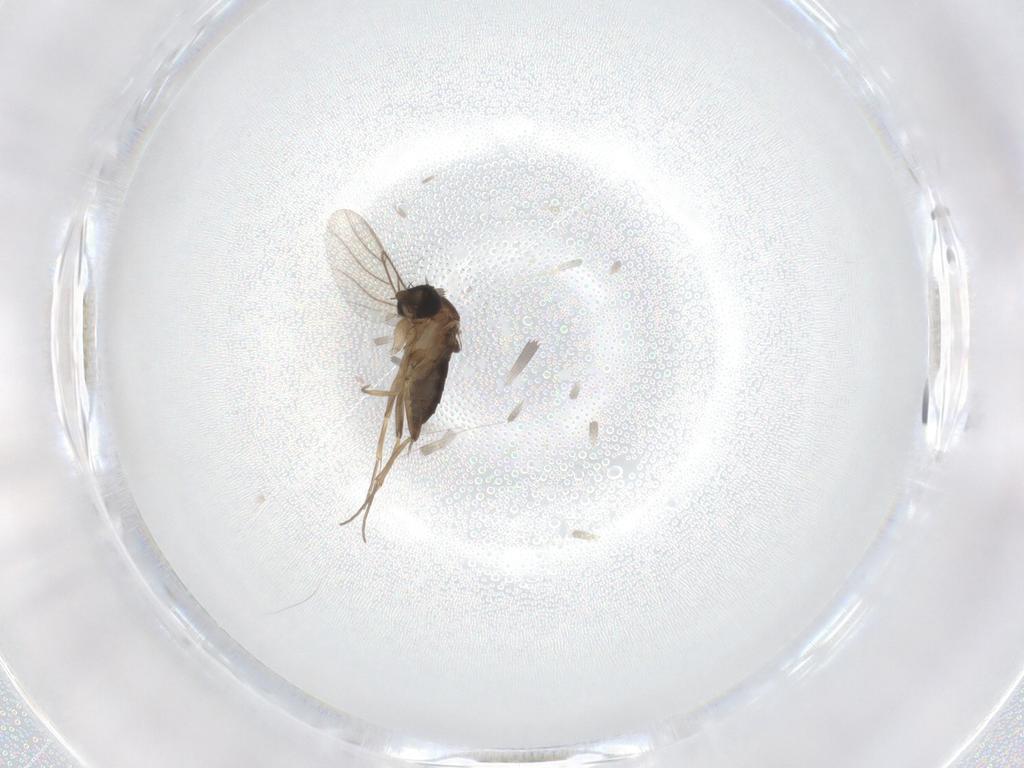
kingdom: Animalia
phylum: Arthropoda
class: Insecta
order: Diptera
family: Phoridae
